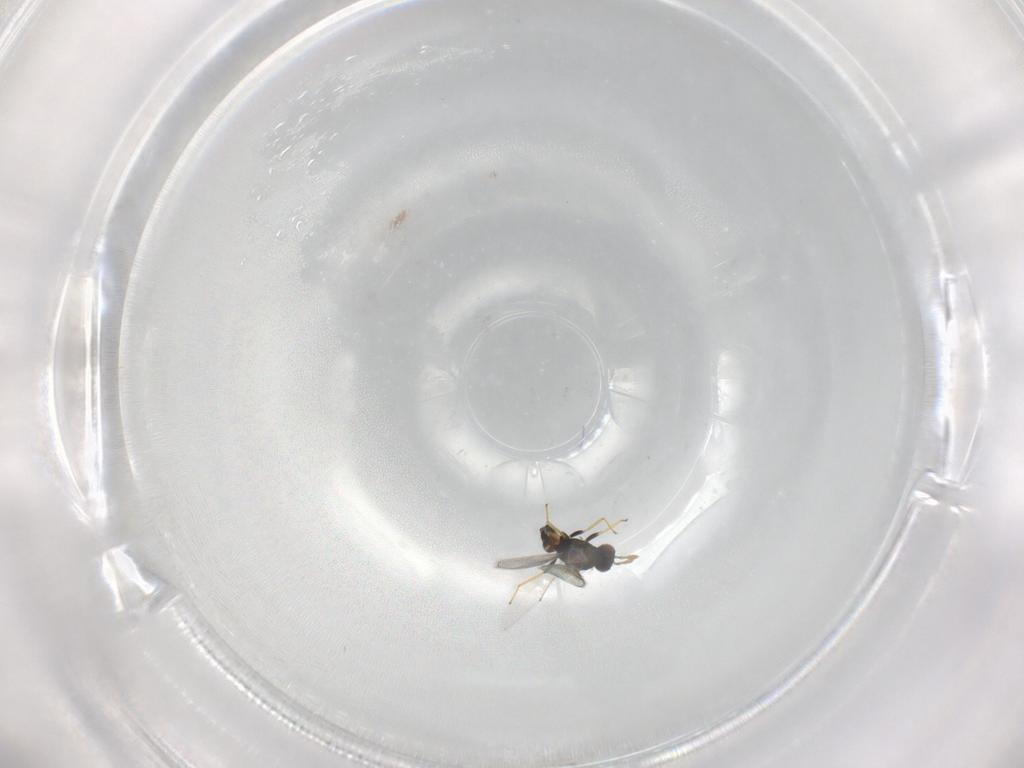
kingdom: Animalia
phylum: Arthropoda
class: Insecta
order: Hymenoptera
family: Eulophidae
